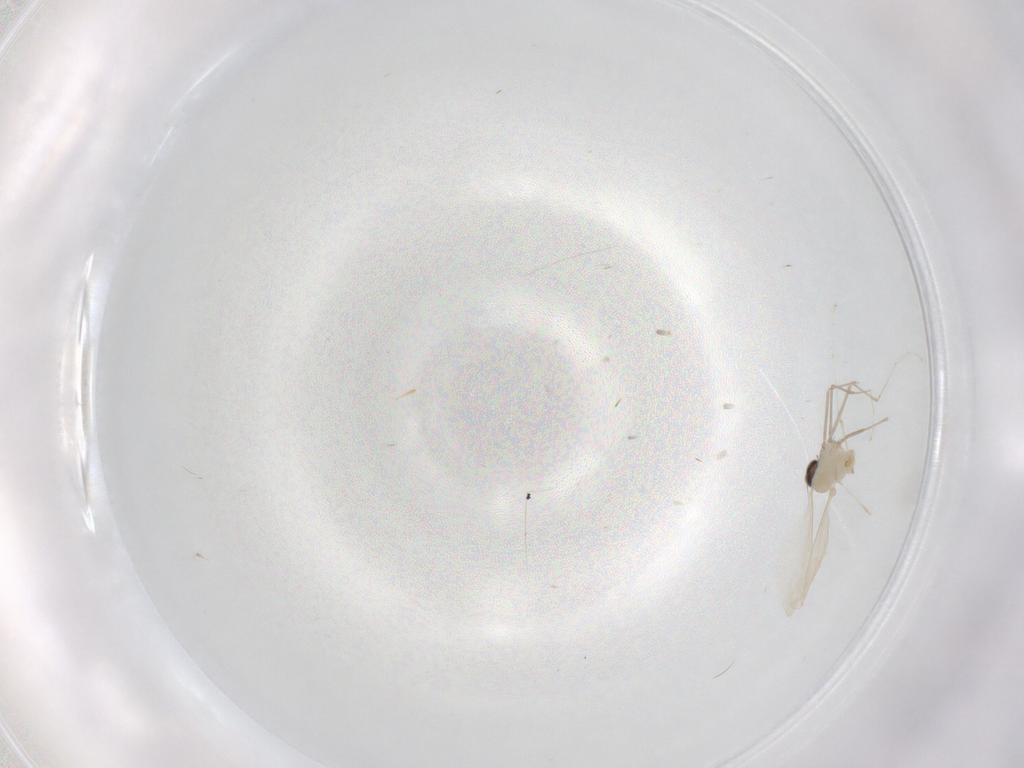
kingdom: Animalia
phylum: Arthropoda
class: Insecta
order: Diptera
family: Cecidomyiidae
